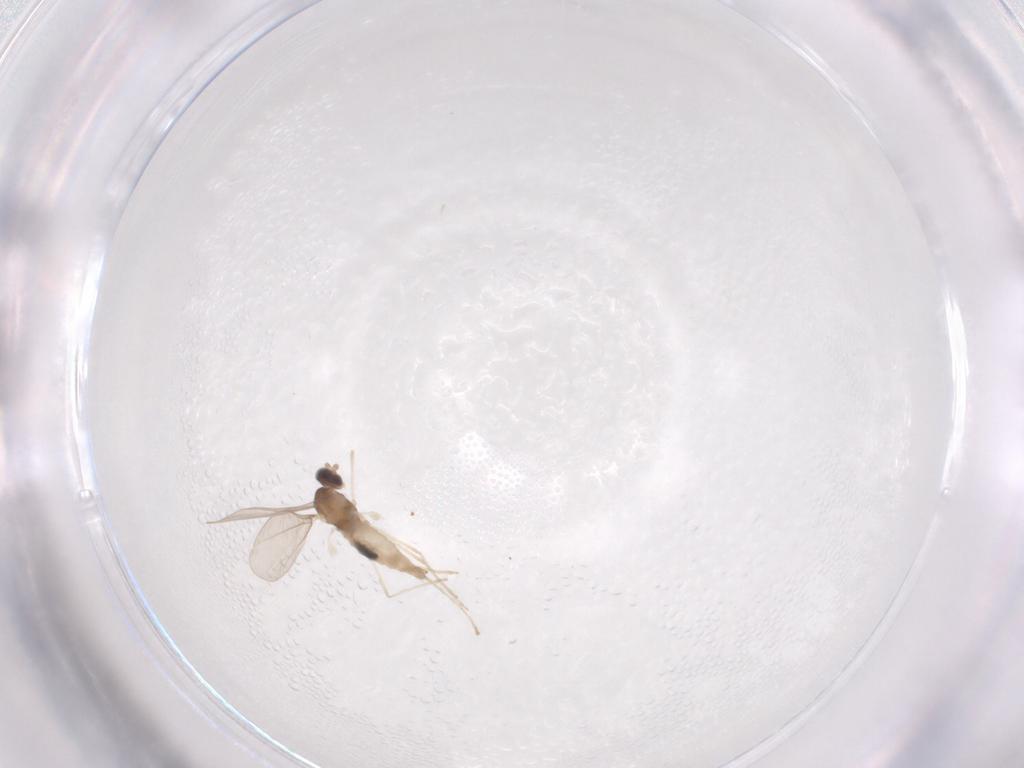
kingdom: Animalia
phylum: Arthropoda
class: Insecta
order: Diptera
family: Cecidomyiidae
